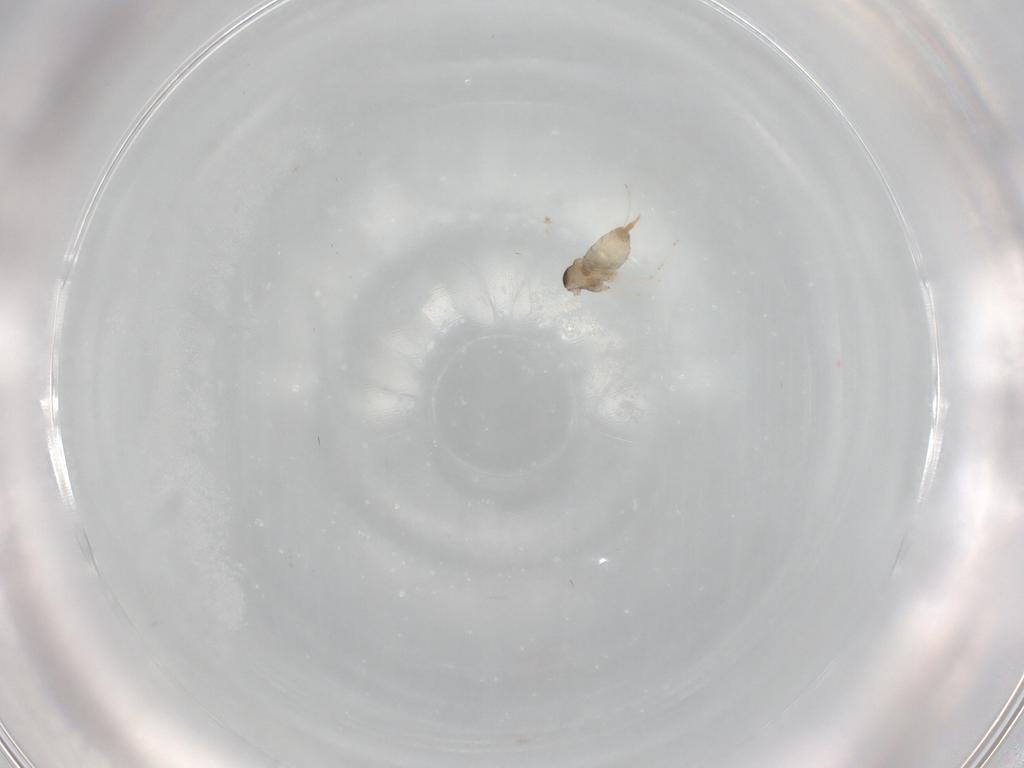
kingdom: Animalia
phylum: Arthropoda
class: Insecta
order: Diptera
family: Cecidomyiidae
